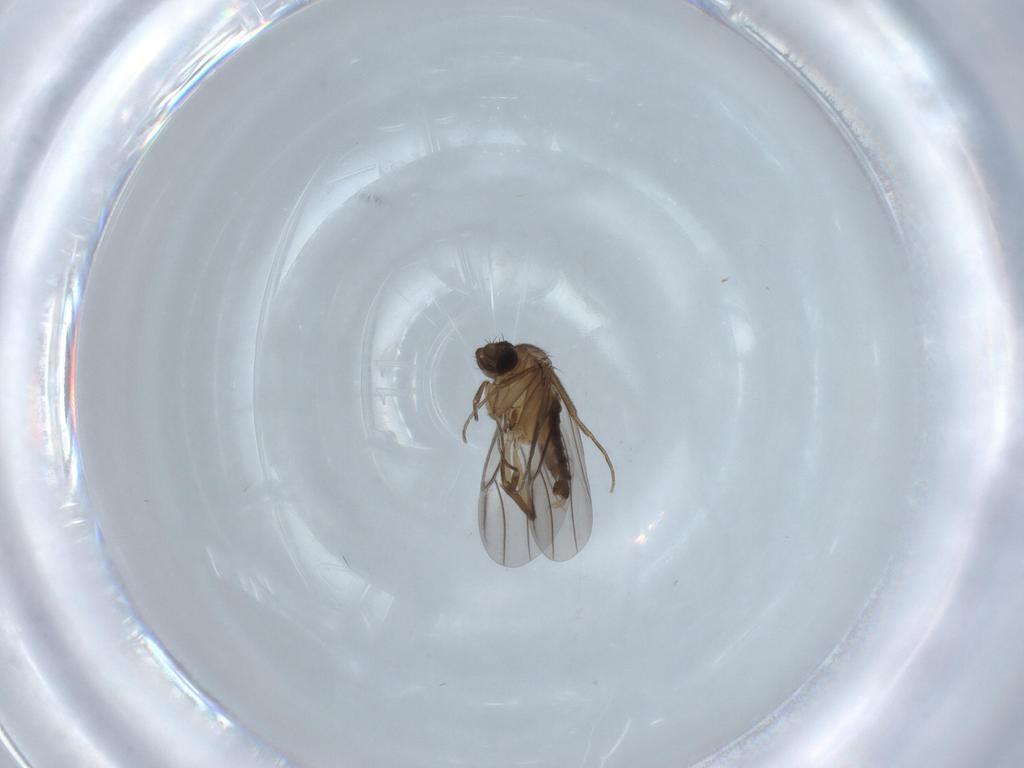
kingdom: Animalia
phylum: Arthropoda
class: Insecta
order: Diptera
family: Phoridae
